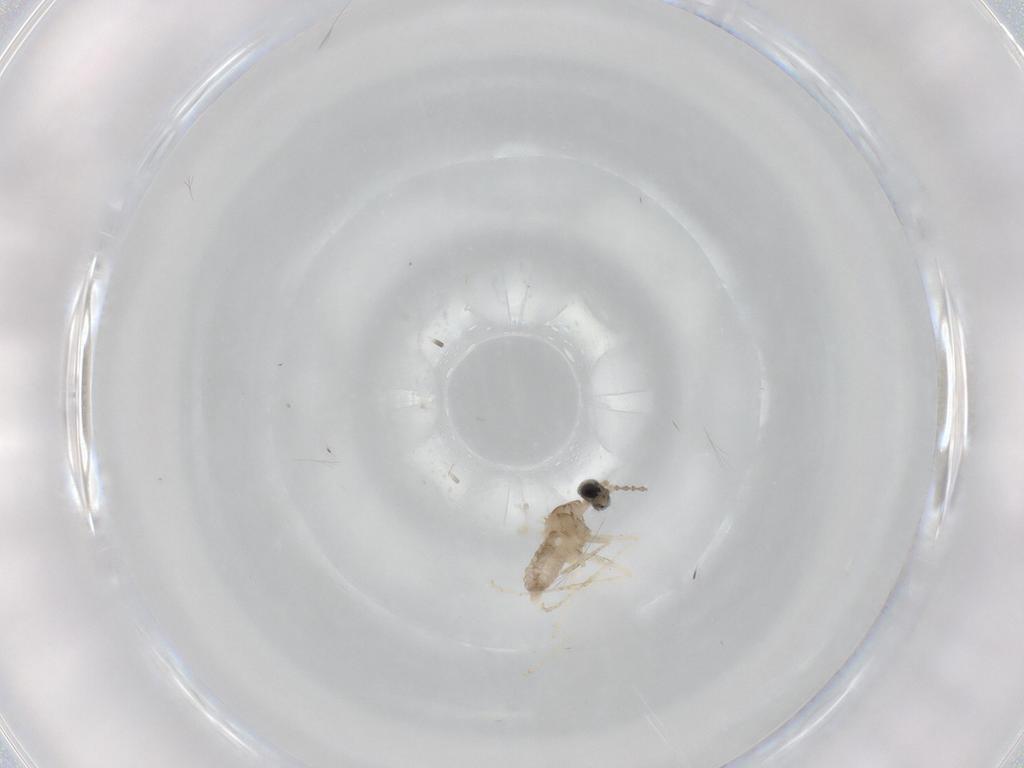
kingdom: Animalia
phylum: Arthropoda
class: Insecta
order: Diptera
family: Cecidomyiidae
